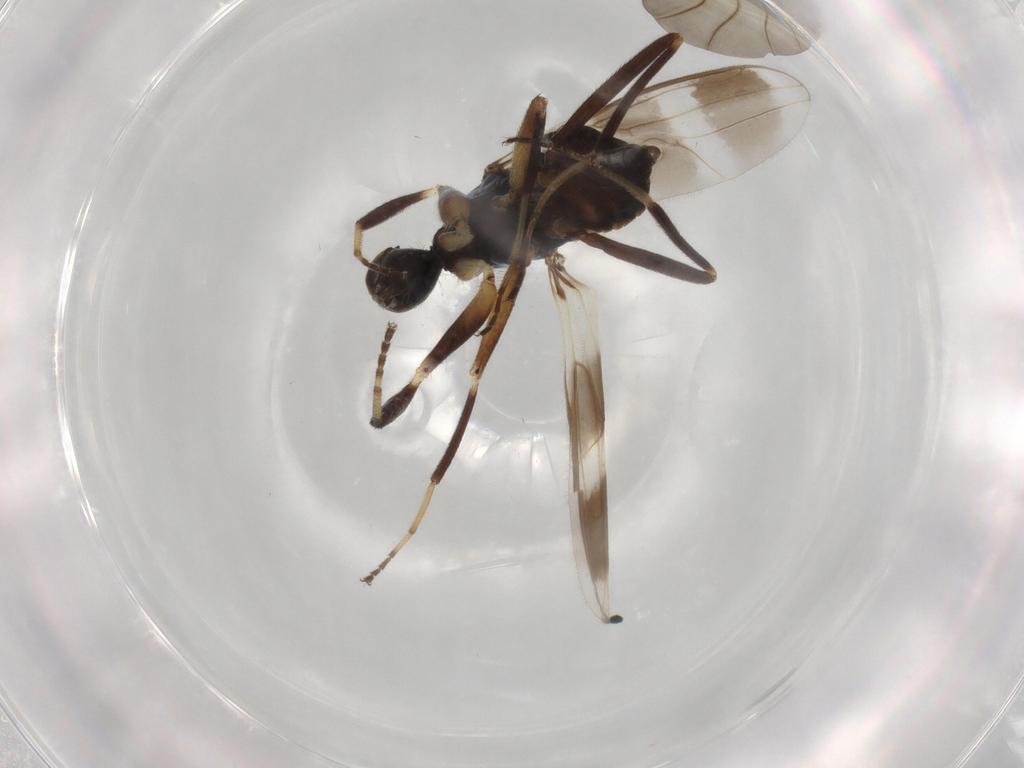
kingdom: Animalia
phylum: Arthropoda
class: Insecta
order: Diptera
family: Hybotidae
